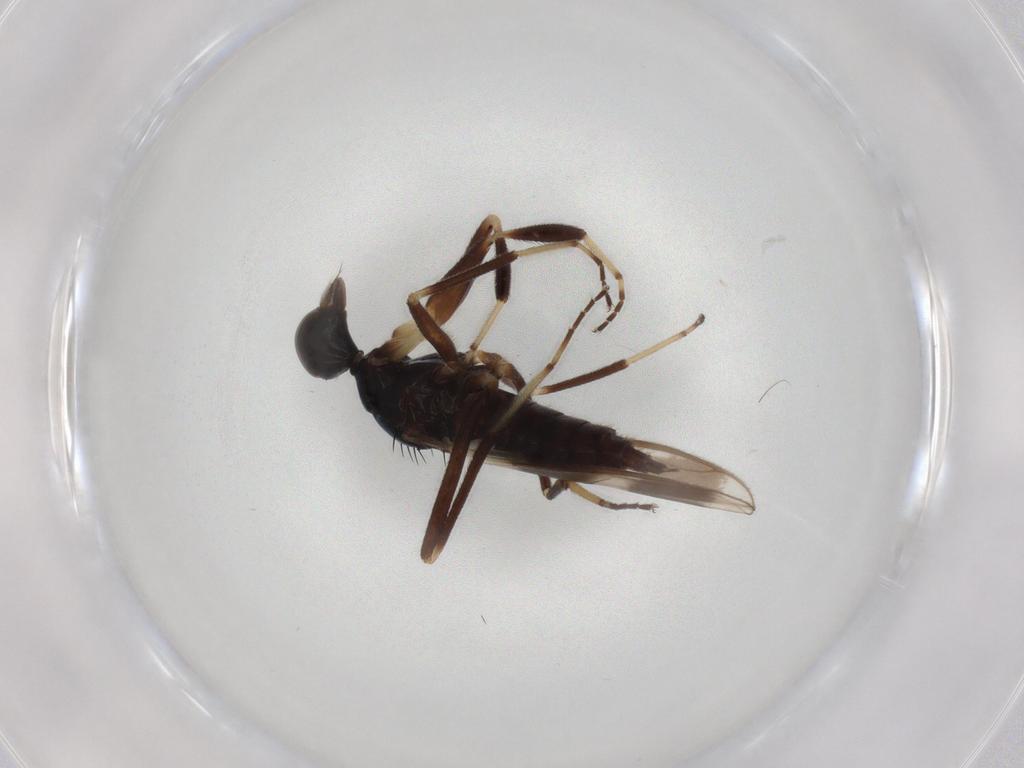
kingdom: Animalia
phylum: Arthropoda
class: Insecta
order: Diptera
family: Hybotidae
